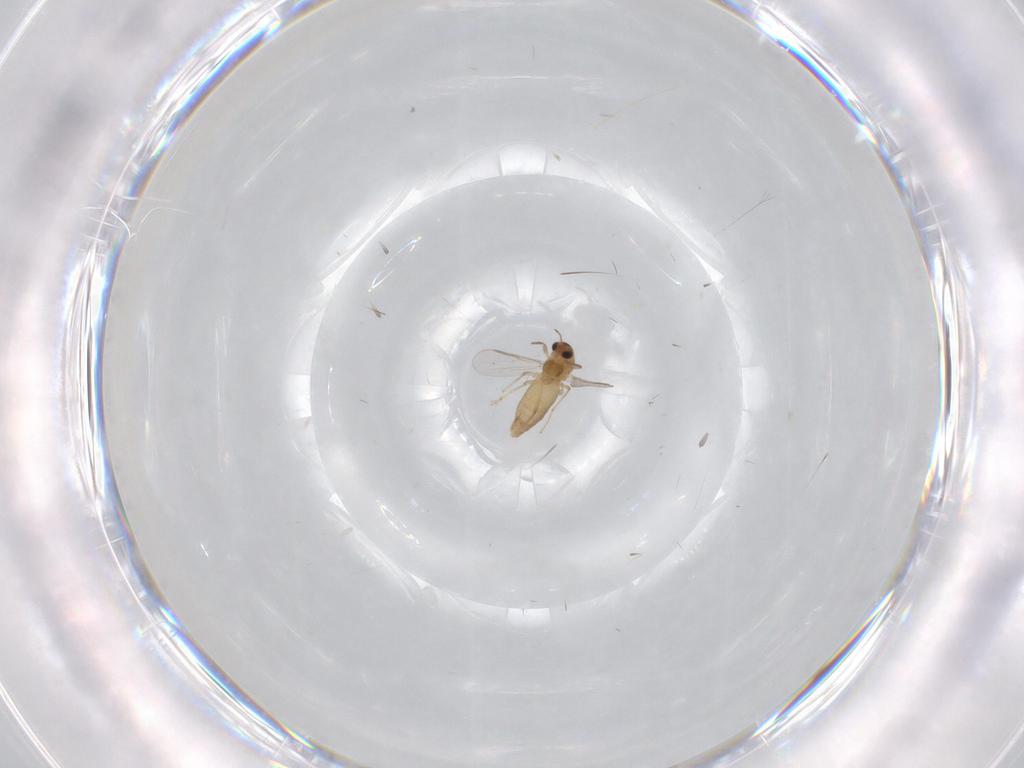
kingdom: Animalia
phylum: Arthropoda
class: Insecta
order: Diptera
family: Chironomidae
